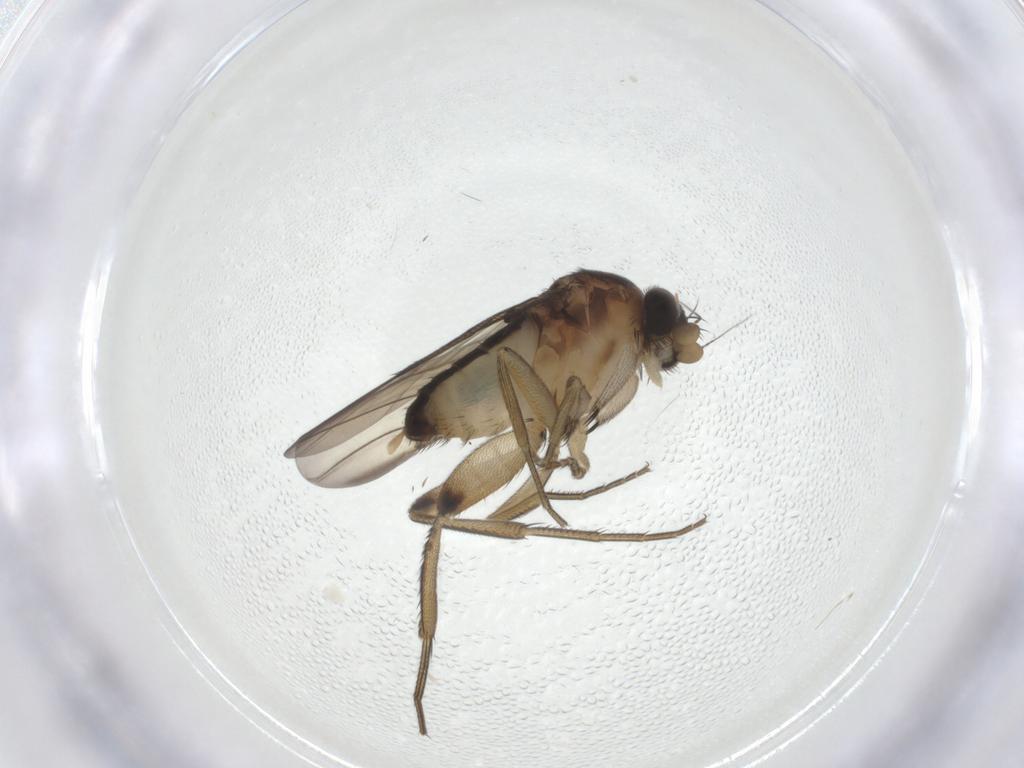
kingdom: Animalia
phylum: Arthropoda
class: Insecta
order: Diptera
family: Phoridae
